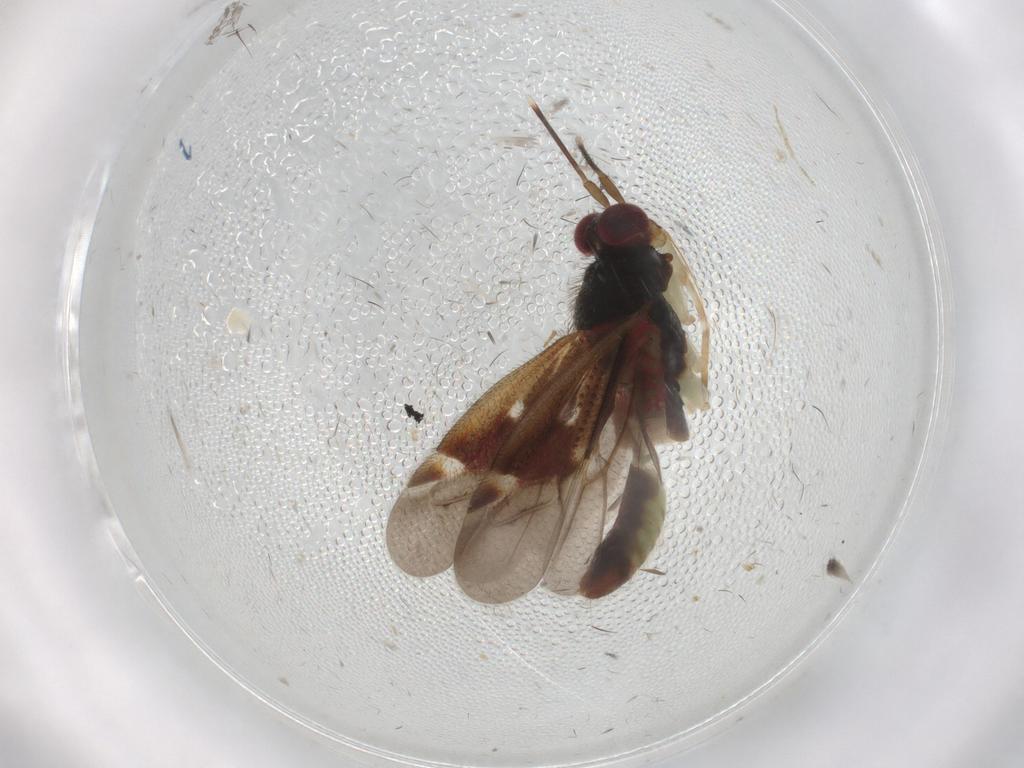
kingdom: Animalia
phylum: Arthropoda
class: Insecta
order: Hemiptera
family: Miridae
